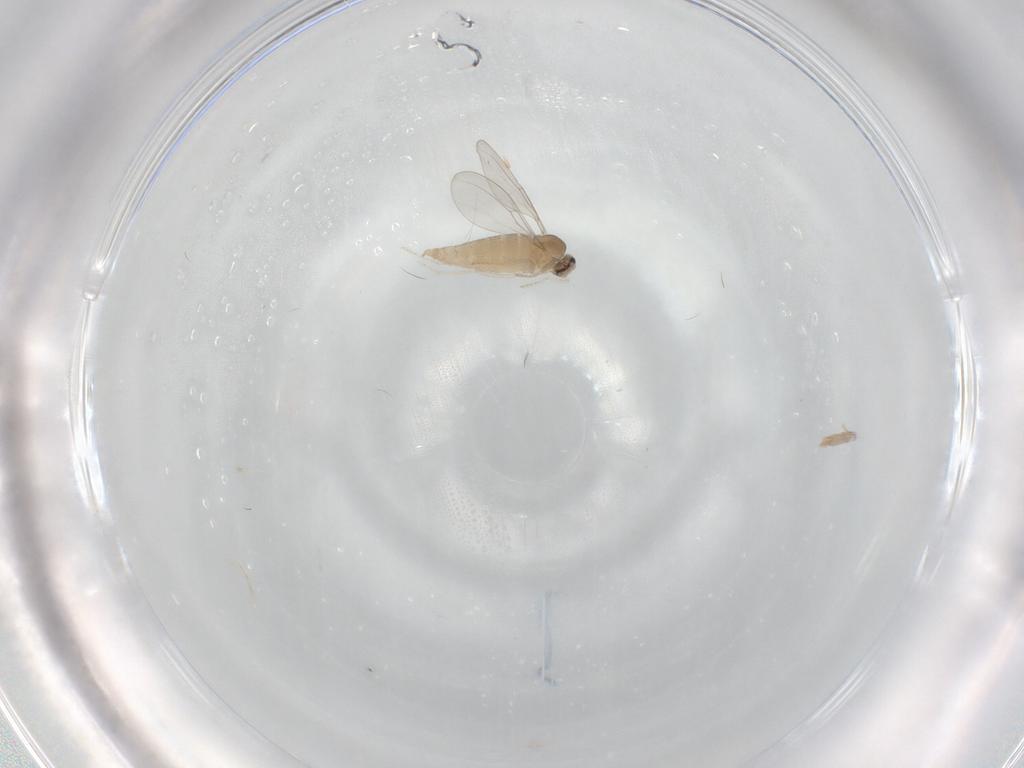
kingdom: Animalia
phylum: Arthropoda
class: Insecta
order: Diptera
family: Cecidomyiidae
